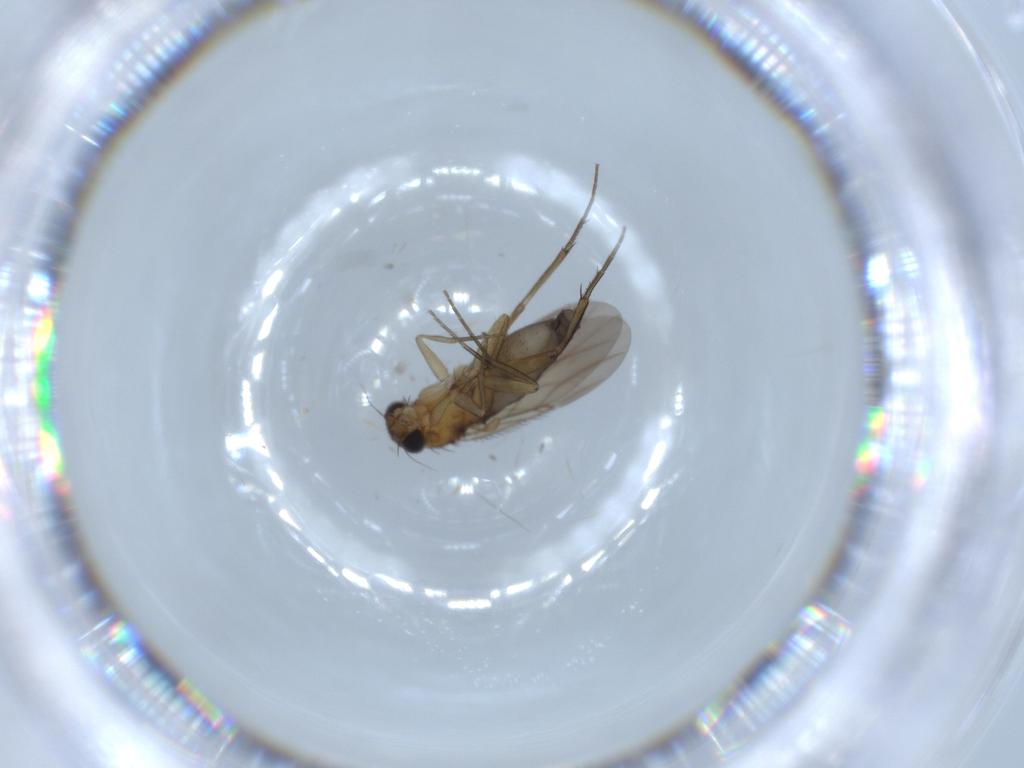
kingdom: Animalia
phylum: Arthropoda
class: Insecta
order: Diptera
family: Phoridae
